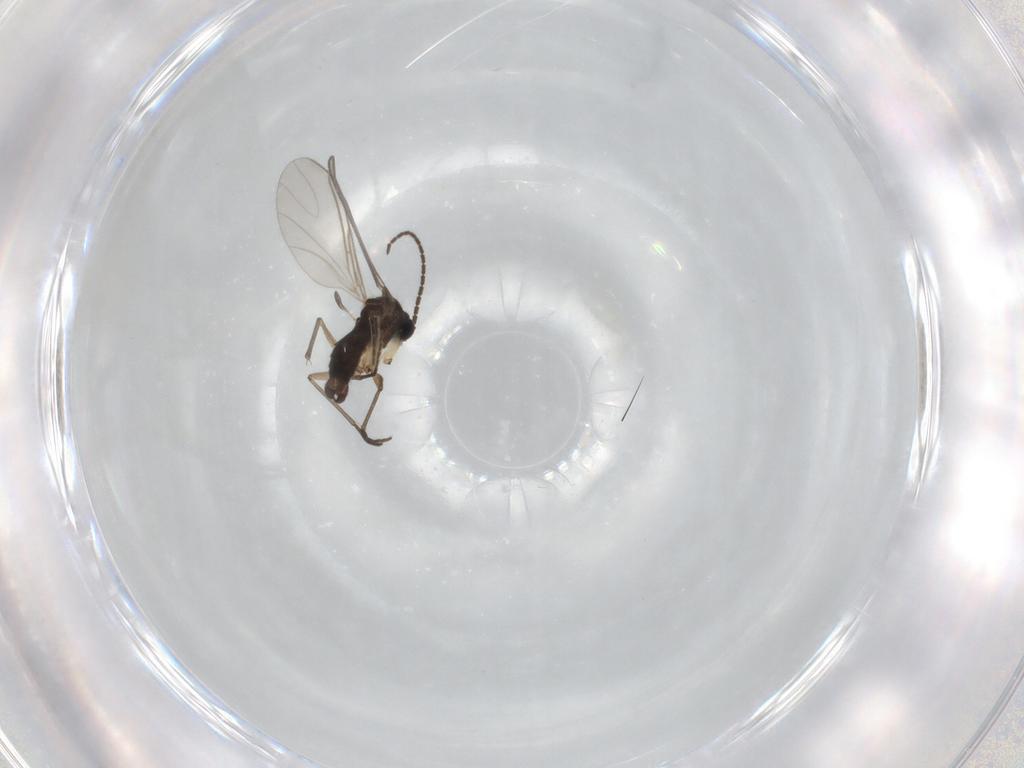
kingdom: Animalia
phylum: Arthropoda
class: Insecta
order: Diptera
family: Sciaridae
